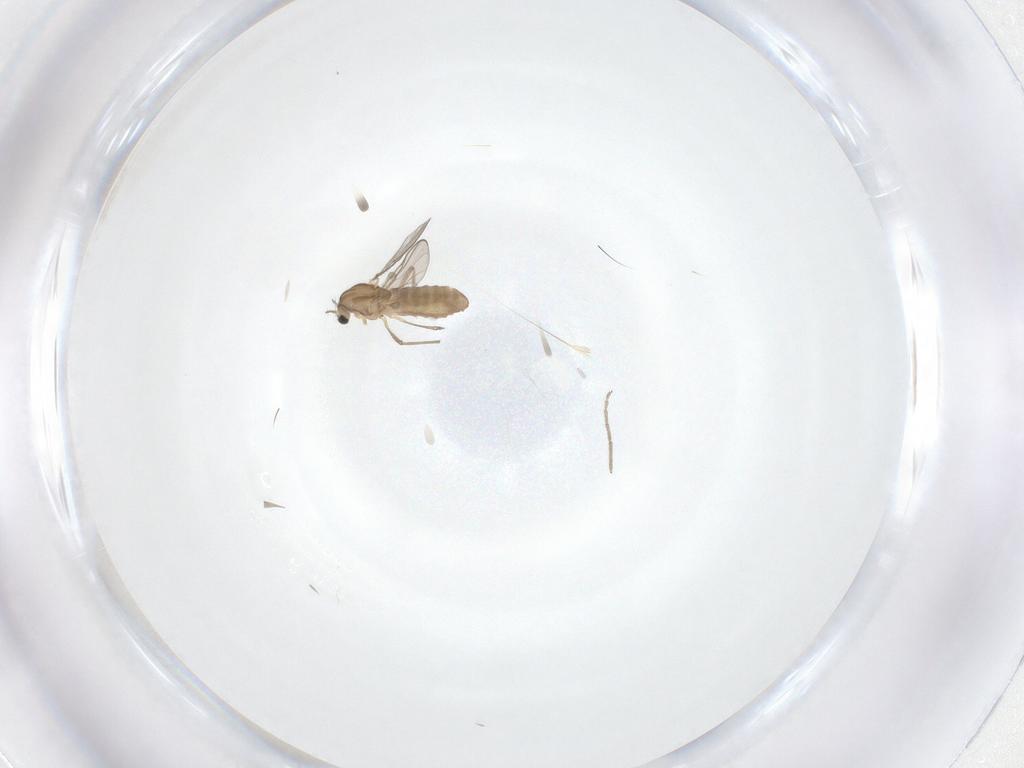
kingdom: Animalia
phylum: Arthropoda
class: Insecta
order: Diptera
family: Chironomidae
